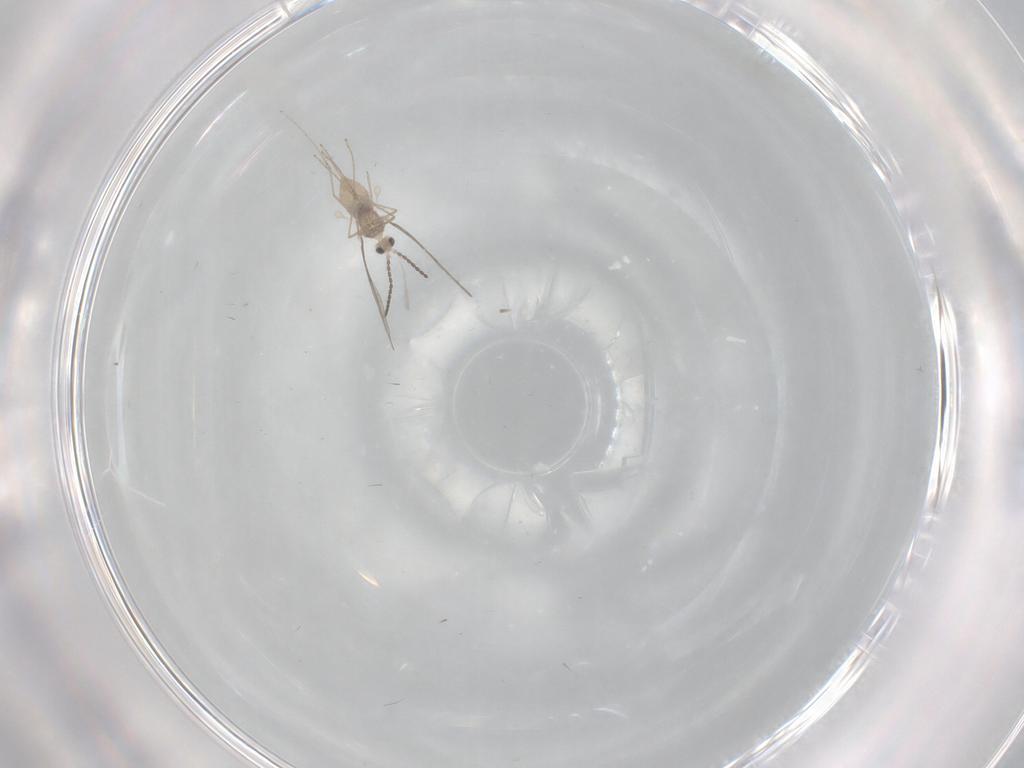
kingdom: Animalia
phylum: Arthropoda
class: Insecta
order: Diptera
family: Cecidomyiidae
